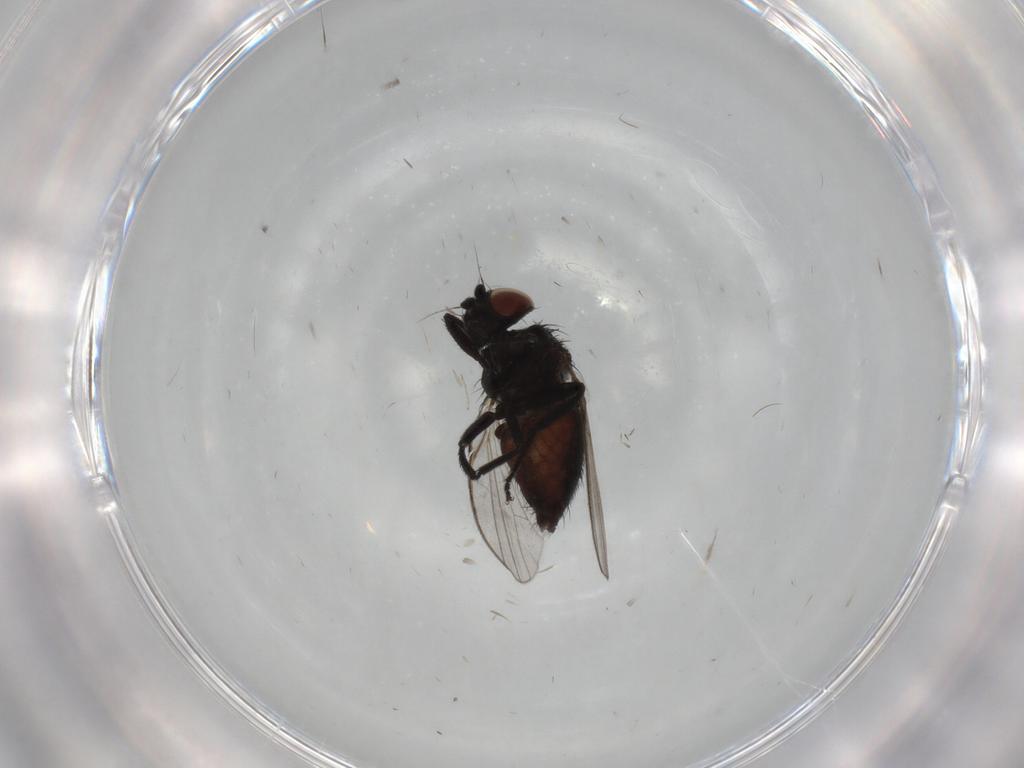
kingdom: Animalia
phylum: Arthropoda
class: Insecta
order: Diptera
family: Milichiidae
